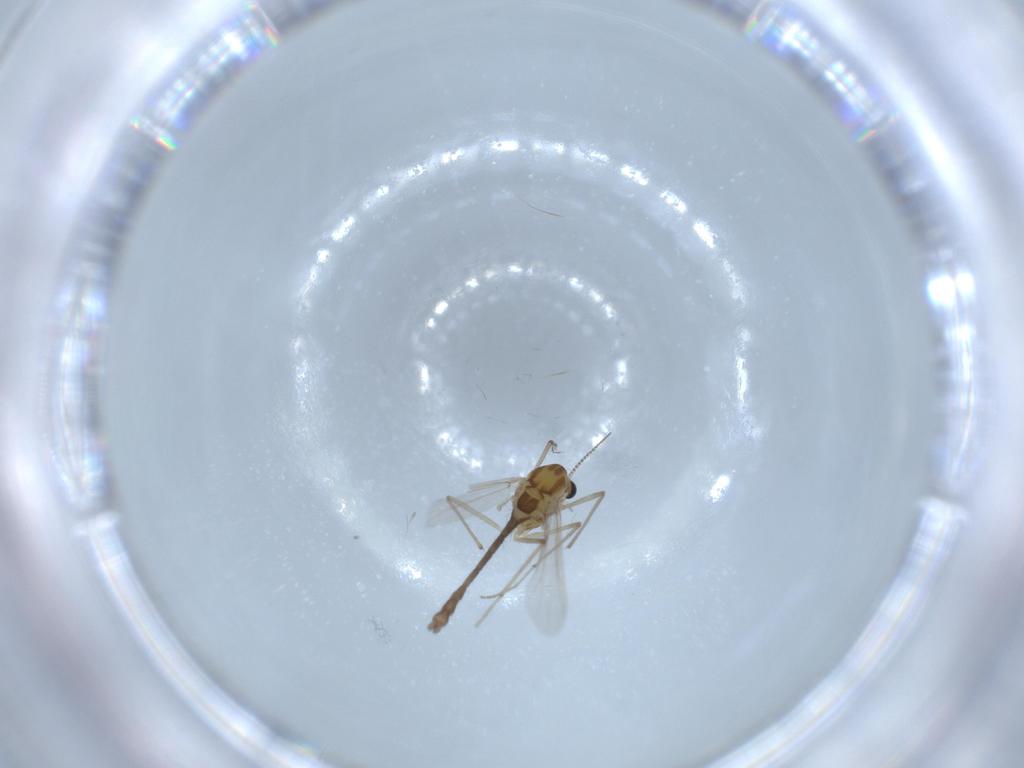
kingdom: Animalia
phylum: Arthropoda
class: Insecta
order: Diptera
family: Chironomidae
